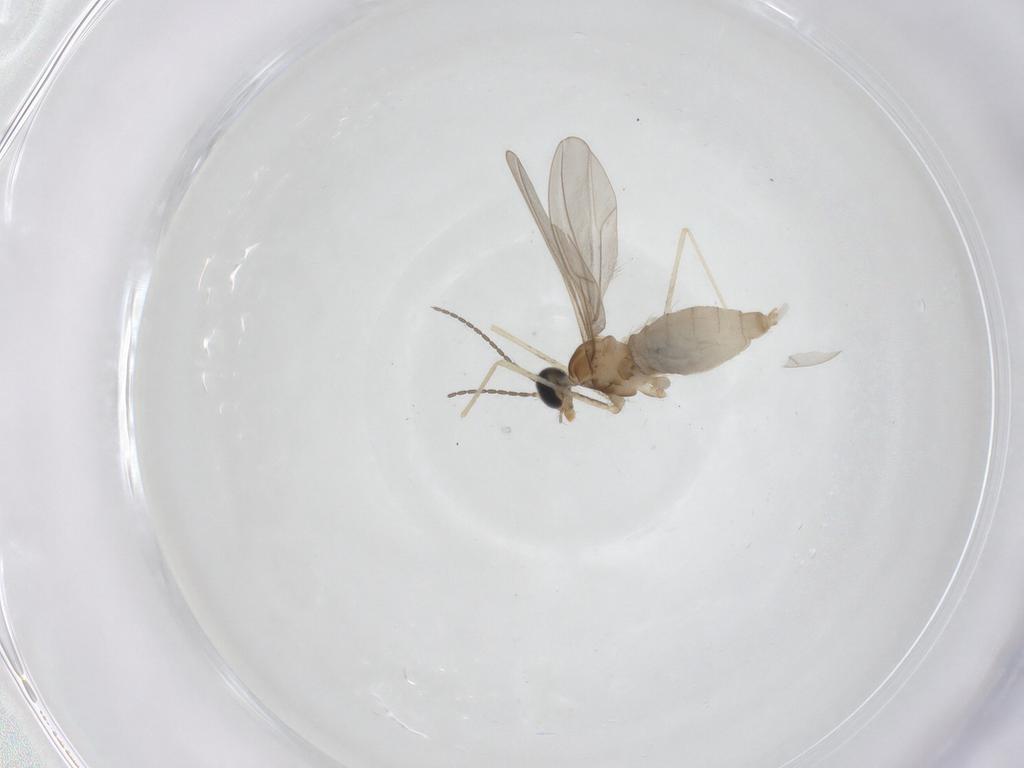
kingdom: Animalia
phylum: Arthropoda
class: Insecta
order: Diptera
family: Cecidomyiidae
